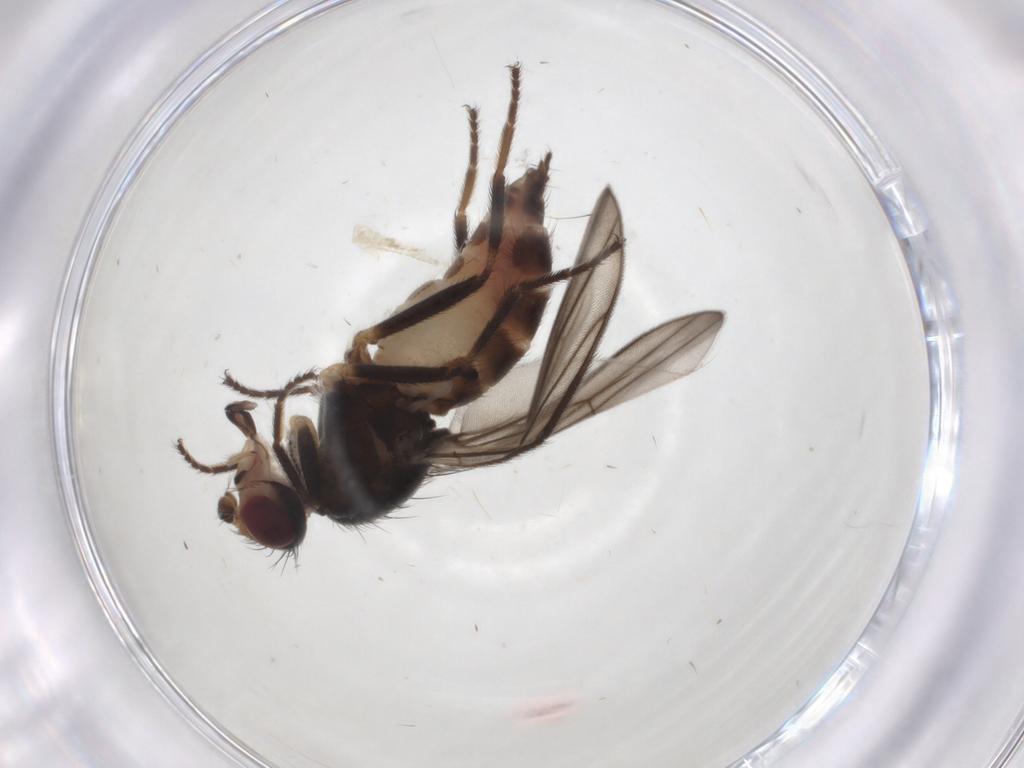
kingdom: Animalia
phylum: Arthropoda
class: Insecta
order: Diptera
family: Chloropidae
